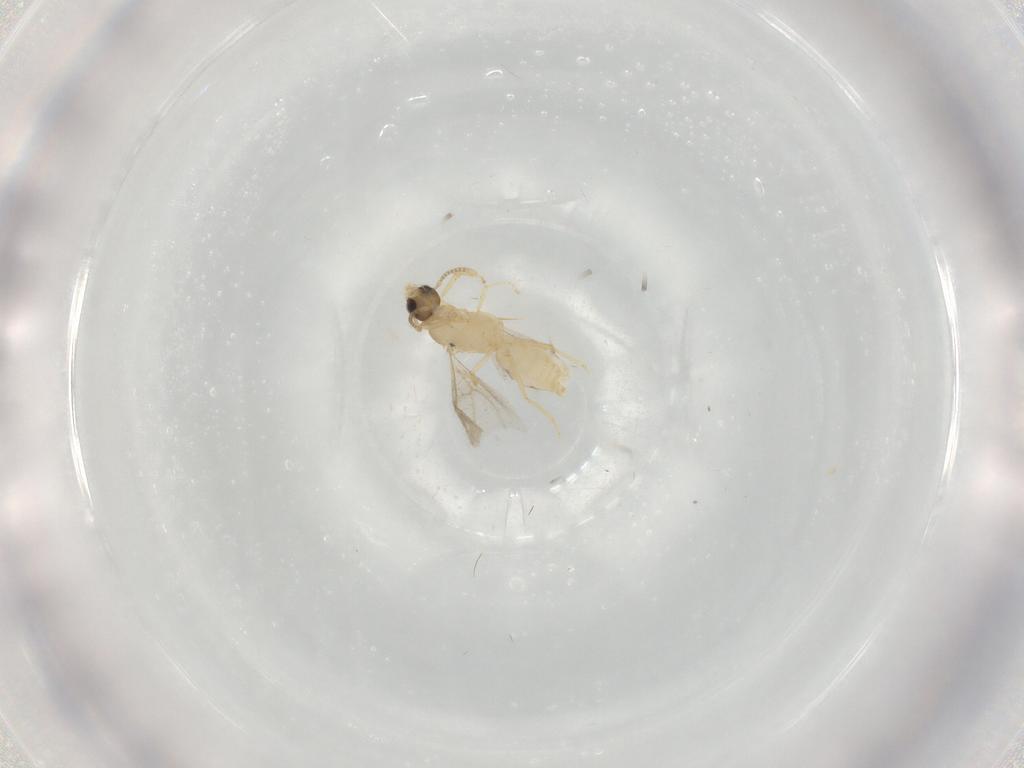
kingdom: Animalia
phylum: Arthropoda
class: Insecta
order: Hymenoptera
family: Formicidae
